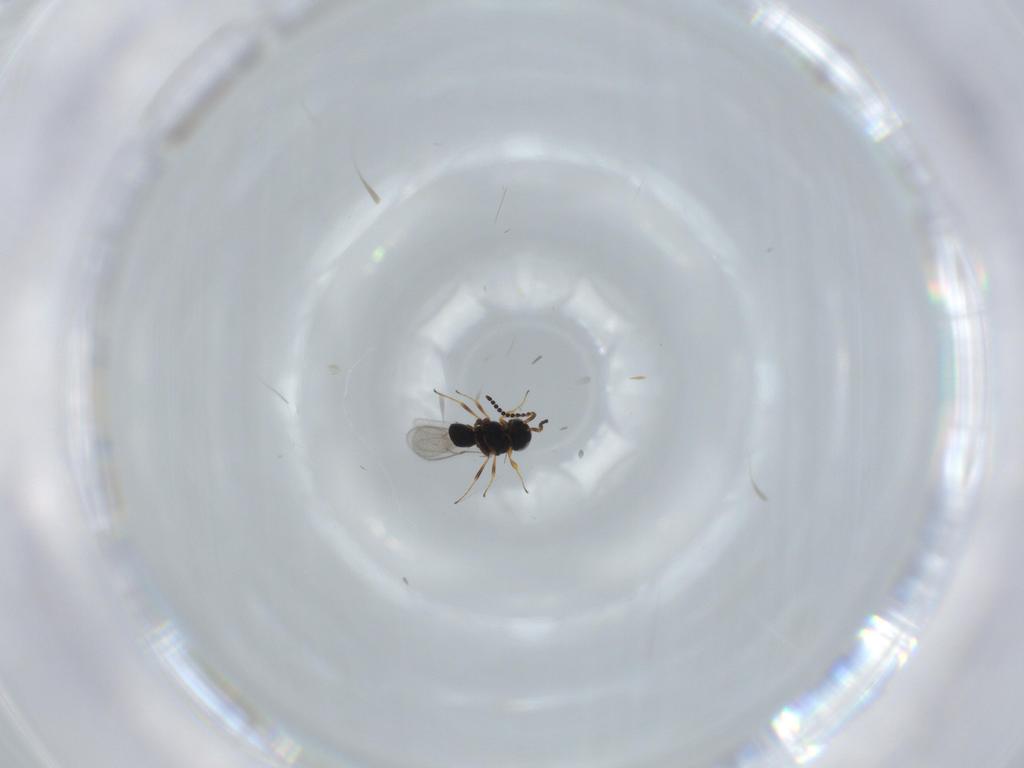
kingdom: Animalia
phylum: Arthropoda
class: Insecta
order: Hymenoptera
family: Scelionidae
